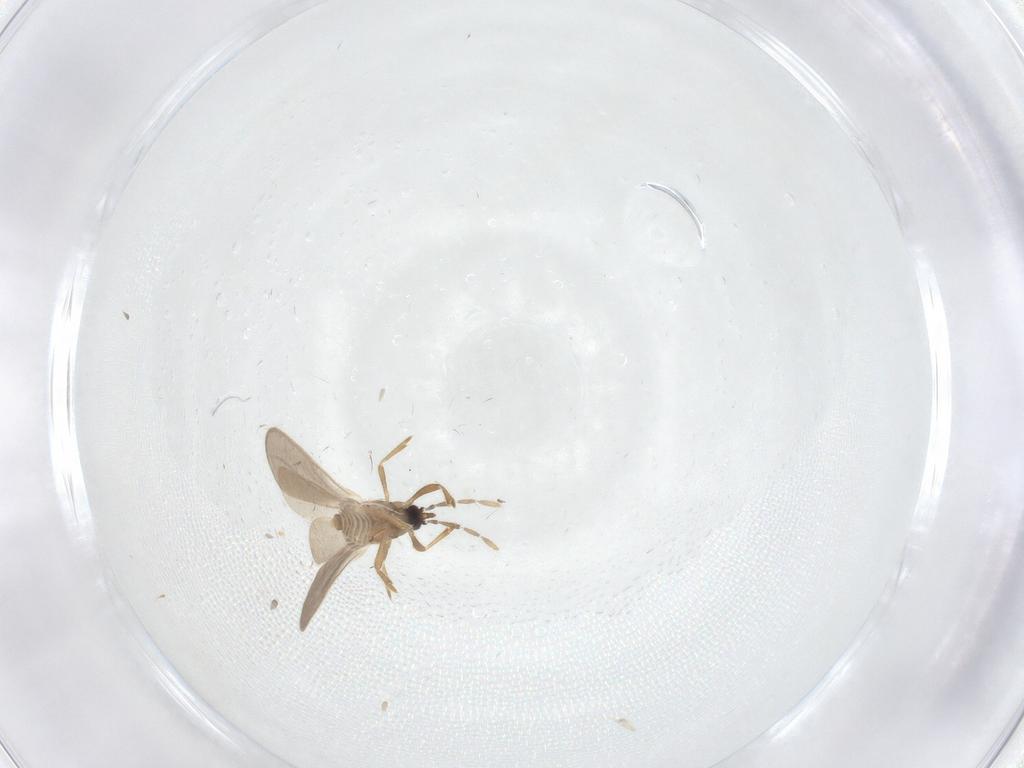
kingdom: Animalia
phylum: Arthropoda
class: Insecta
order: Hemiptera
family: Enicocephalidae
